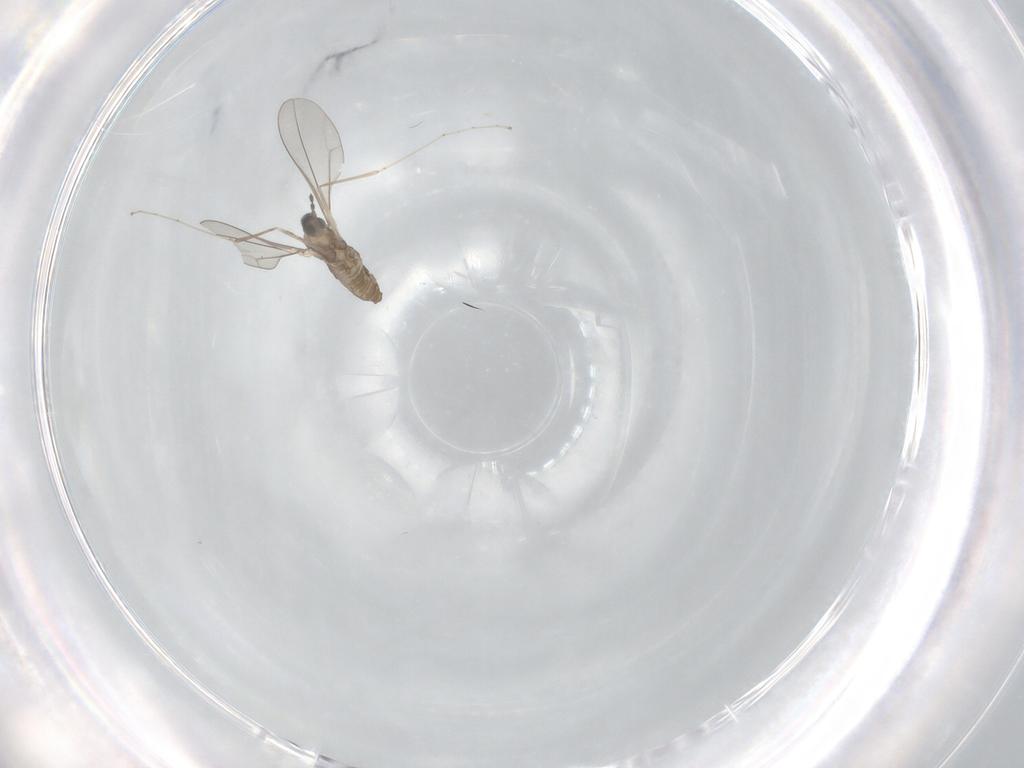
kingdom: Animalia
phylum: Arthropoda
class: Insecta
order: Diptera
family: Cecidomyiidae
